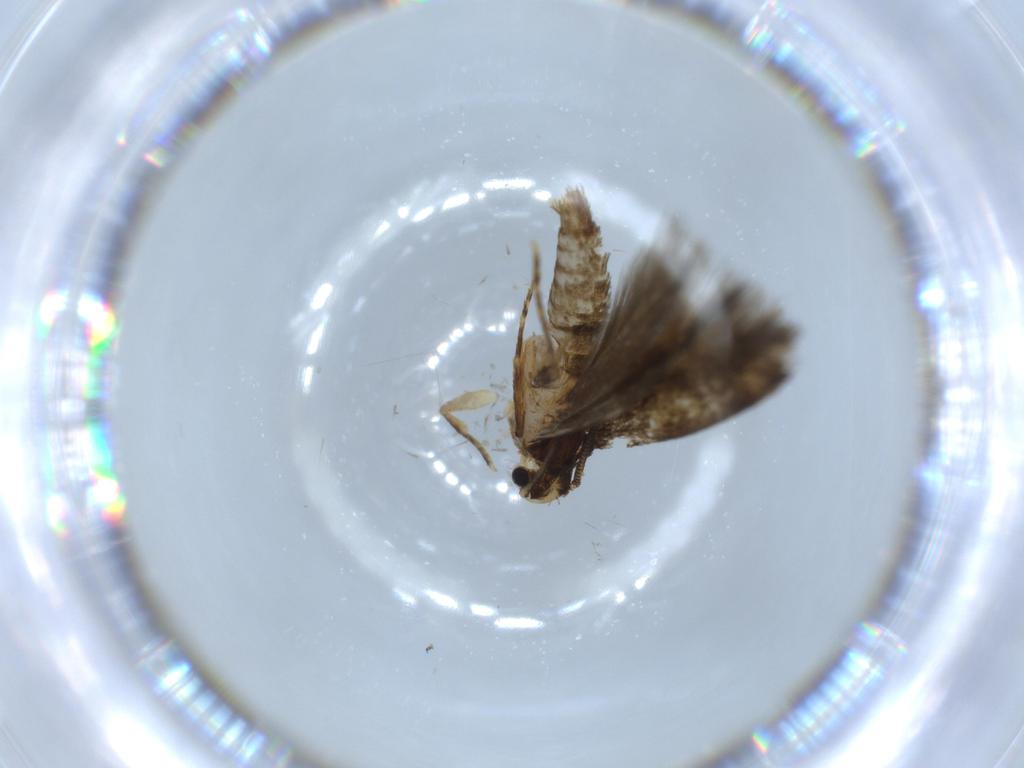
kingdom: Animalia
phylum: Arthropoda
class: Insecta
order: Lepidoptera
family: Tineidae
